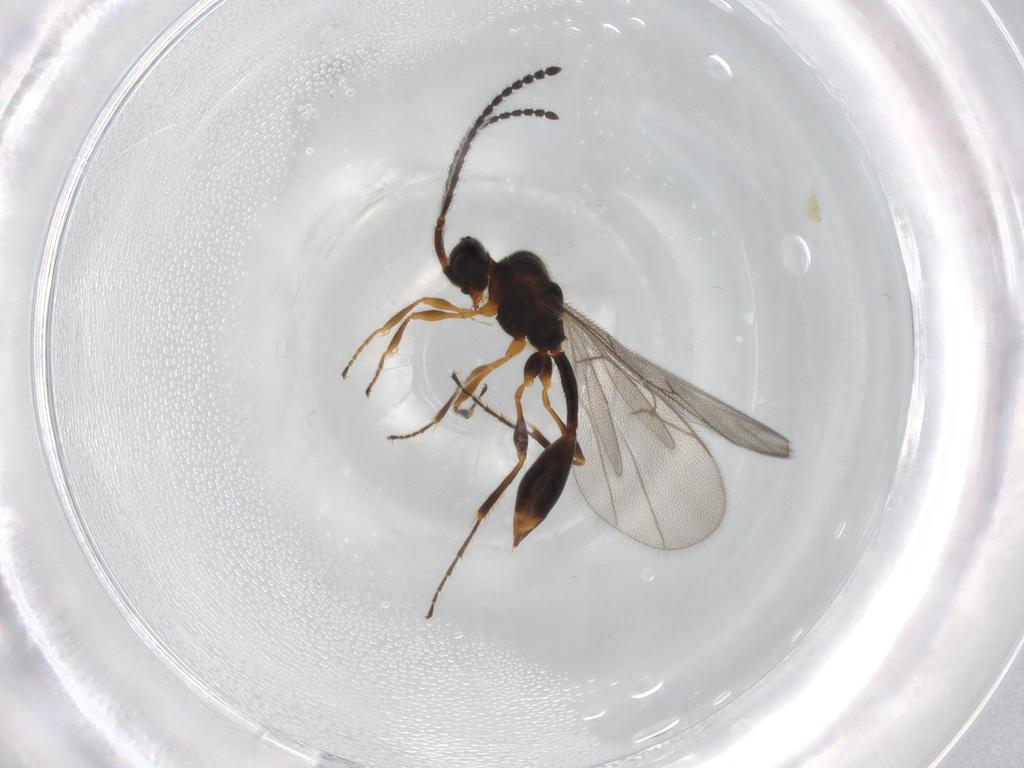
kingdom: Animalia
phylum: Arthropoda
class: Insecta
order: Hymenoptera
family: Diapriidae
